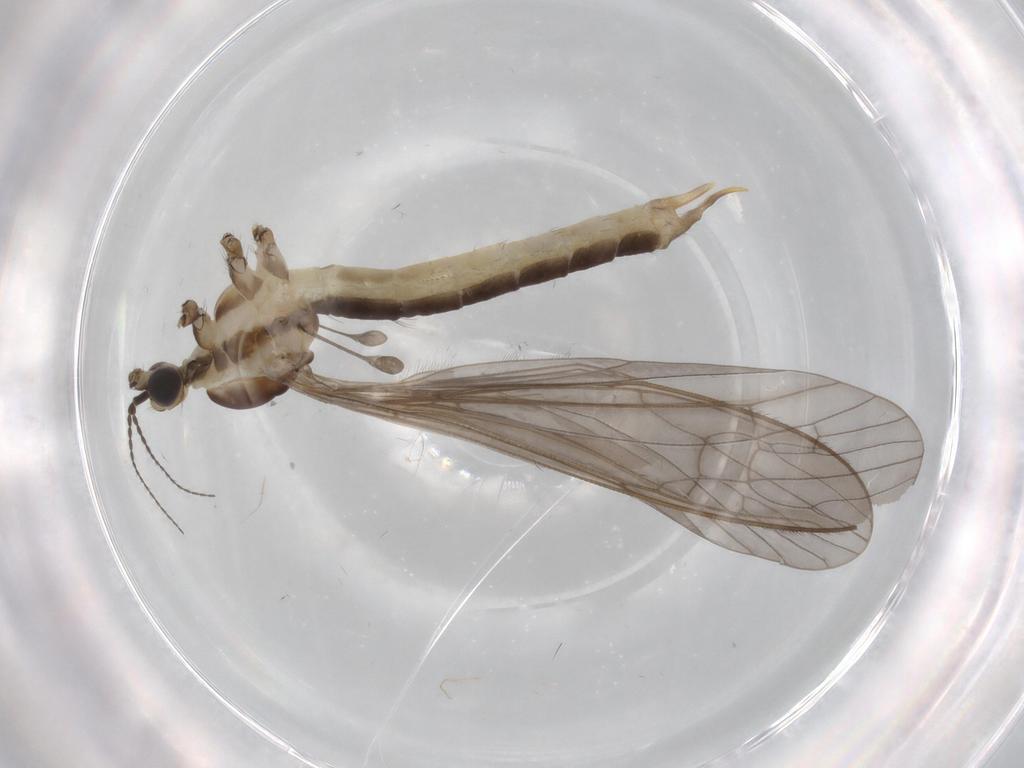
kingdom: Animalia
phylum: Arthropoda
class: Insecta
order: Diptera
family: Limoniidae
